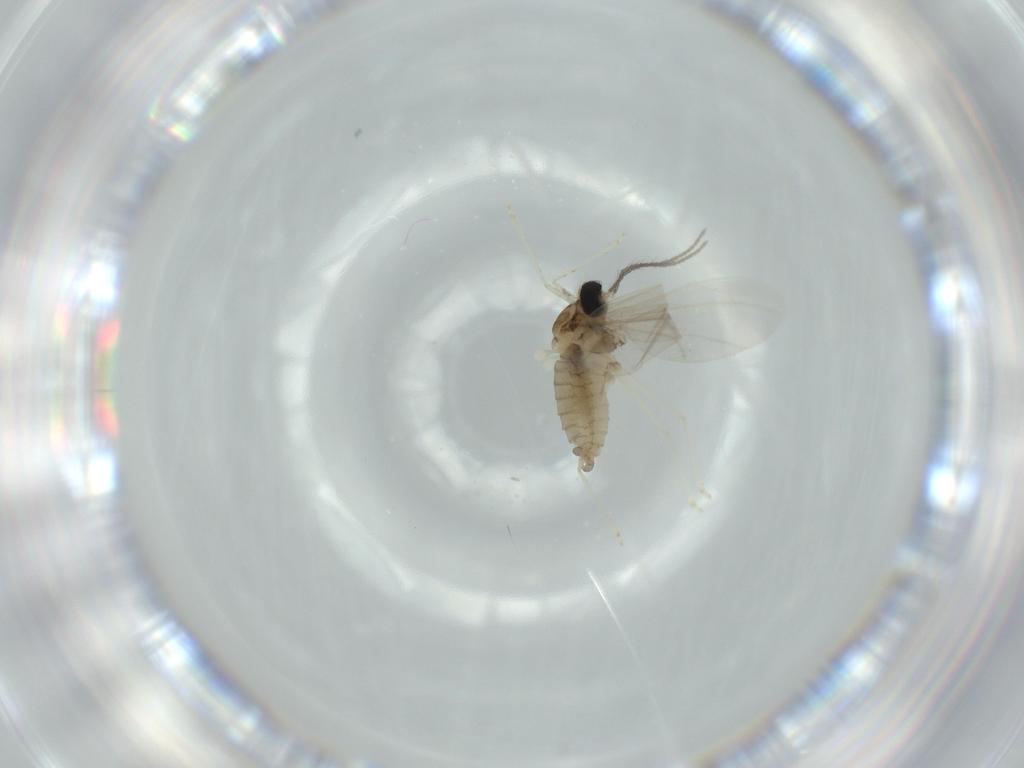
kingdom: Animalia
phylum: Arthropoda
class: Insecta
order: Diptera
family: Cecidomyiidae
